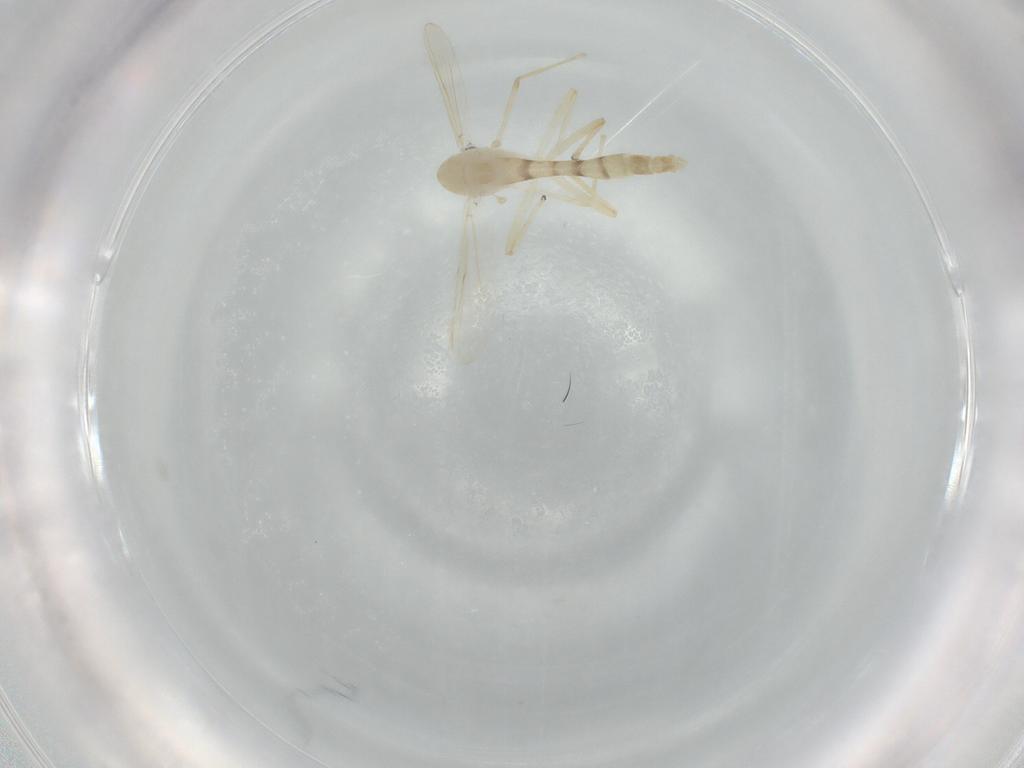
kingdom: Animalia
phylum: Arthropoda
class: Insecta
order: Diptera
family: Chironomidae
